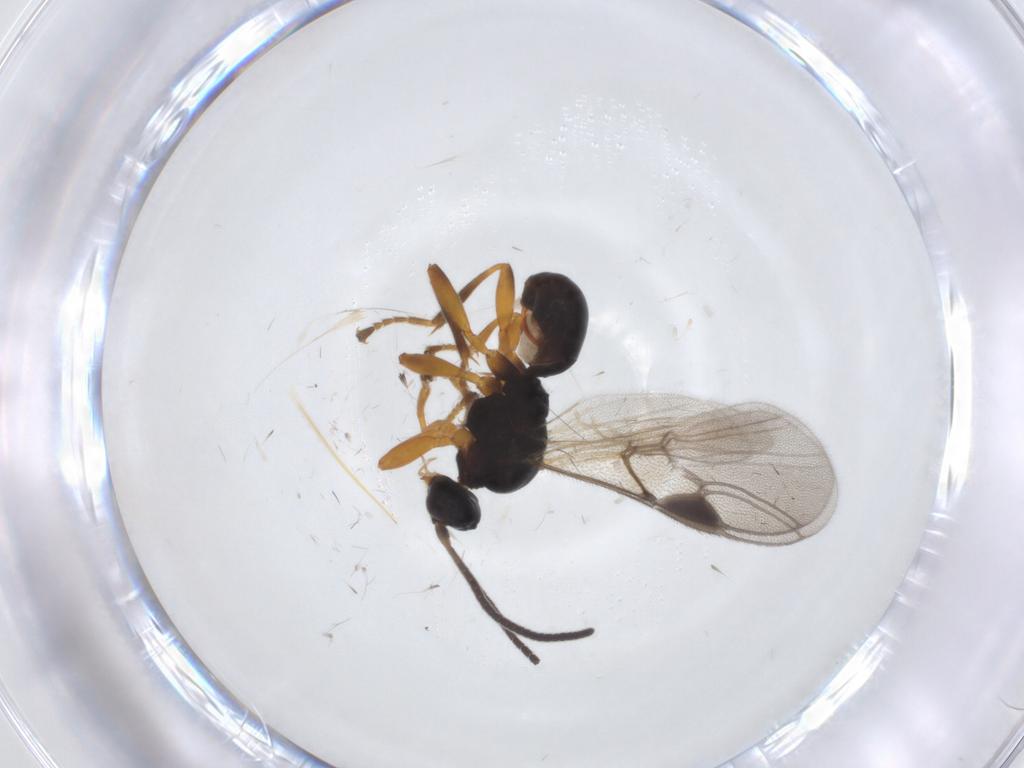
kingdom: Animalia
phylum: Arthropoda
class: Insecta
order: Hymenoptera
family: Braconidae
